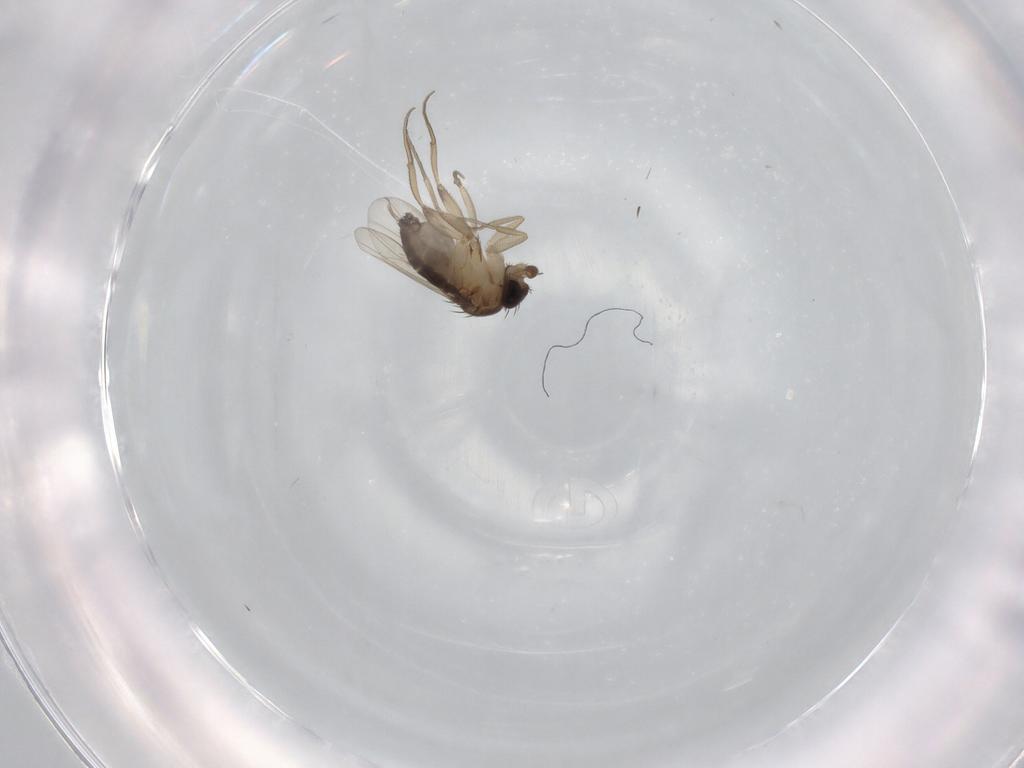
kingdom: Animalia
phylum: Arthropoda
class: Insecta
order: Diptera
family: Phoridae
